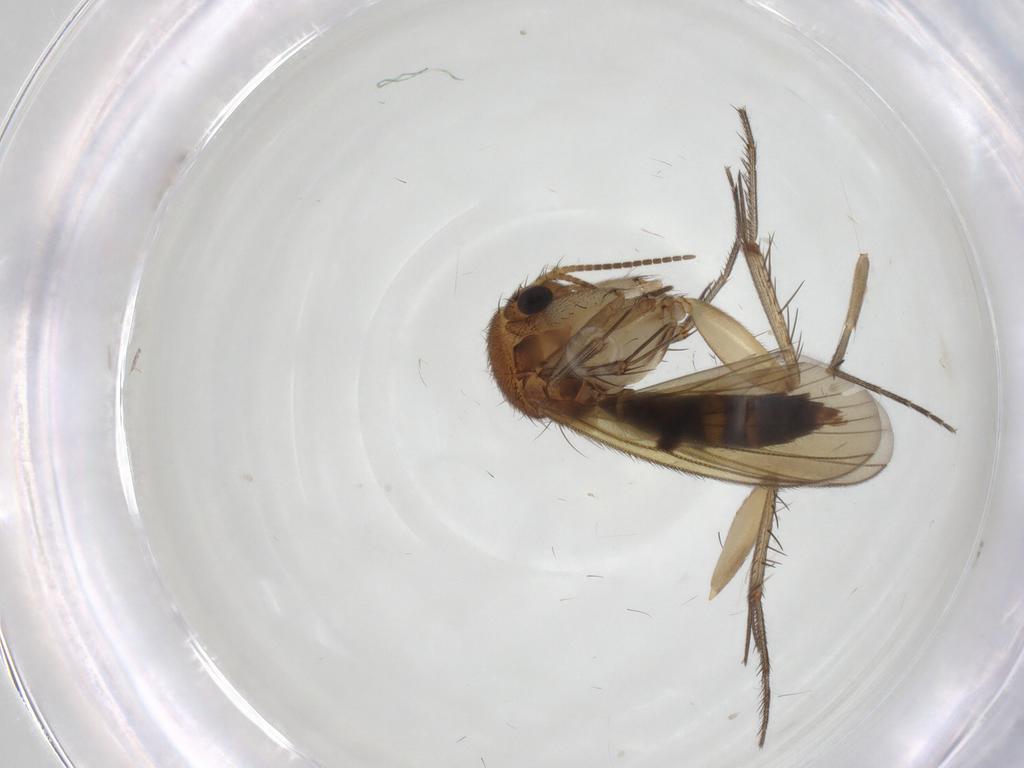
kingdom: Animalia
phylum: Arthropoda
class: Insecta
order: Diptera
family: Mycetophilidae
